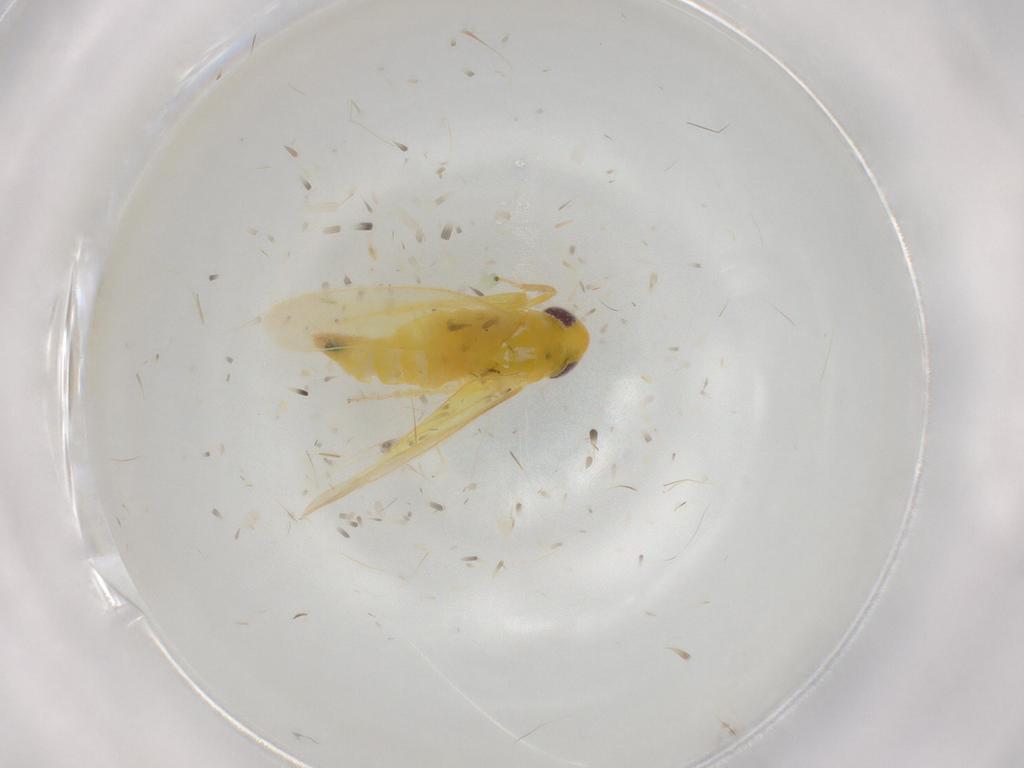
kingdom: Animalia
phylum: Arthropoda
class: Insecta
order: Hemiptera
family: Cicadellidae
